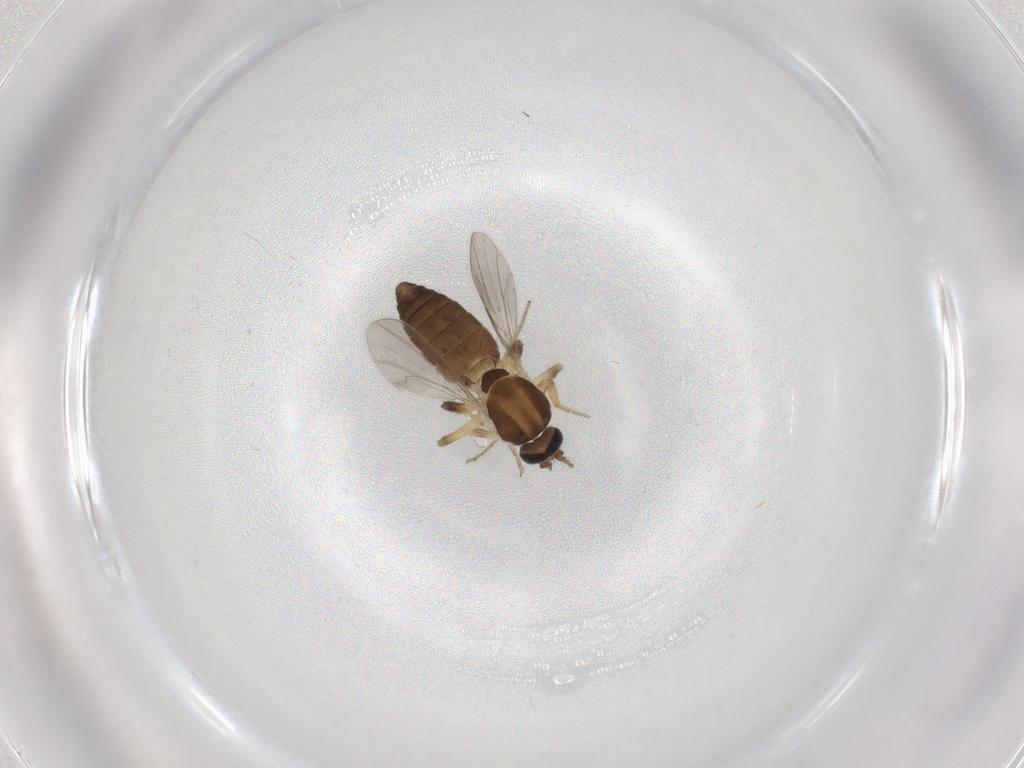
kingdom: Animalia
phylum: Arthropoda
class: Insecta
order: Diptera
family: Ceratopogonidae
